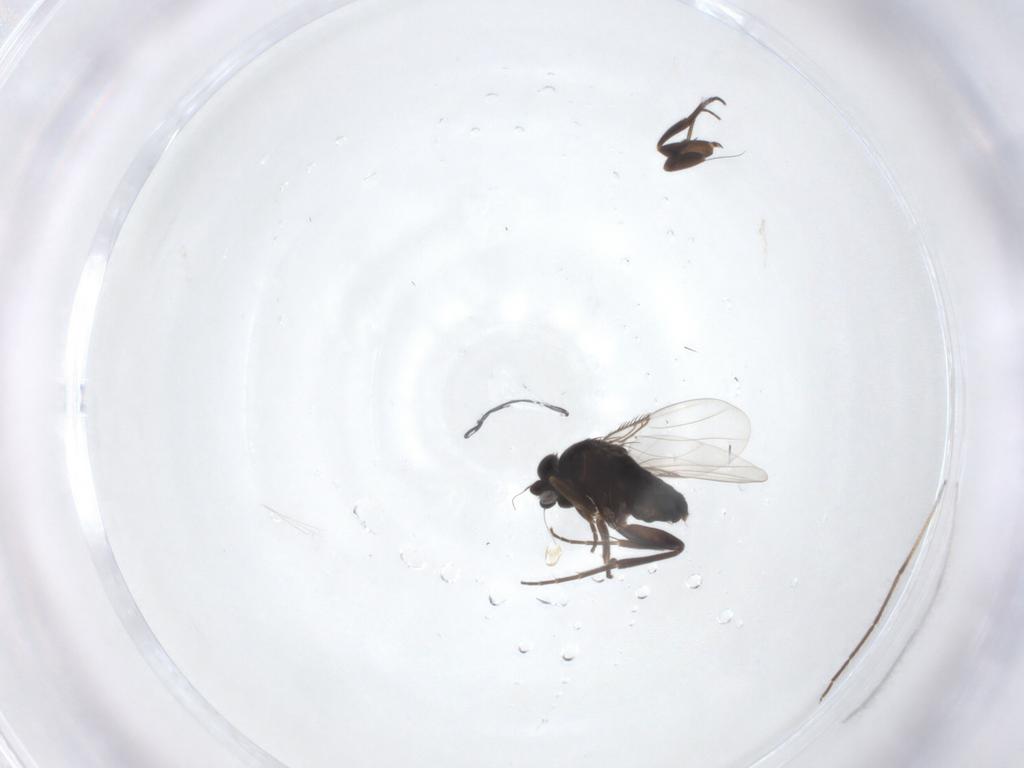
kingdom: Animalia
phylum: Arthropoda
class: Insecta
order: Diptera
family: Phoridae
